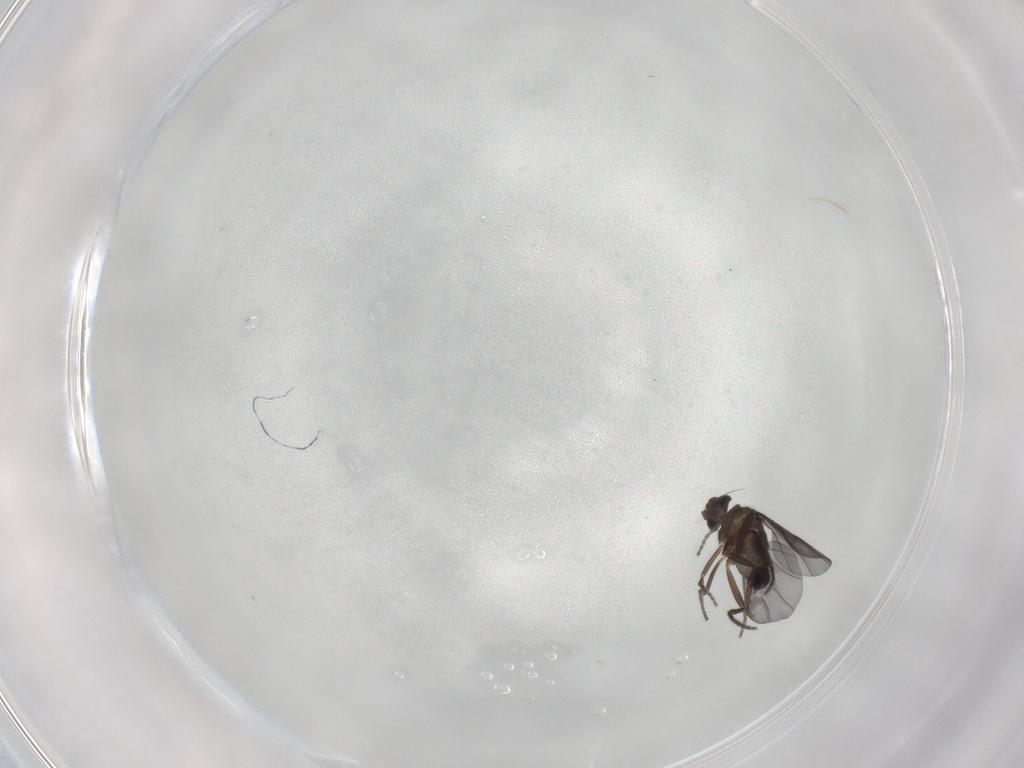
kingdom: Animalia
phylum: Arthropoda
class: Insecta
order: Diptera
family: Phoridae
